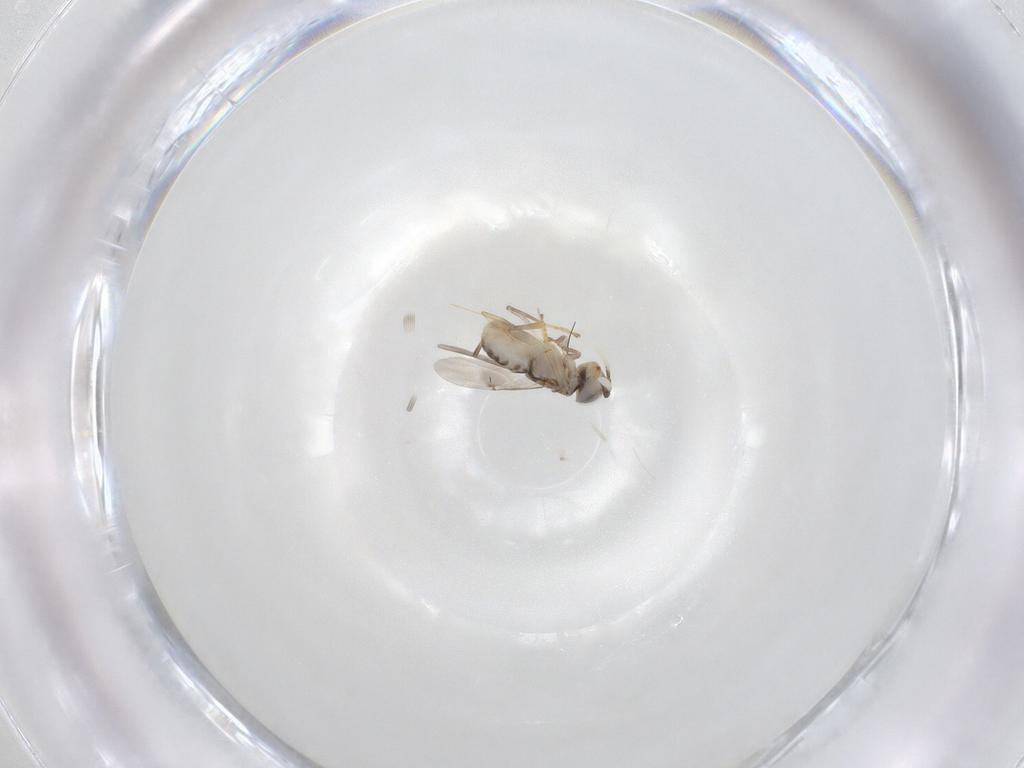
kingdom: Animalia
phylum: Arthropoda
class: Insecta
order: Hymenoptera
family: Encyrtidae
